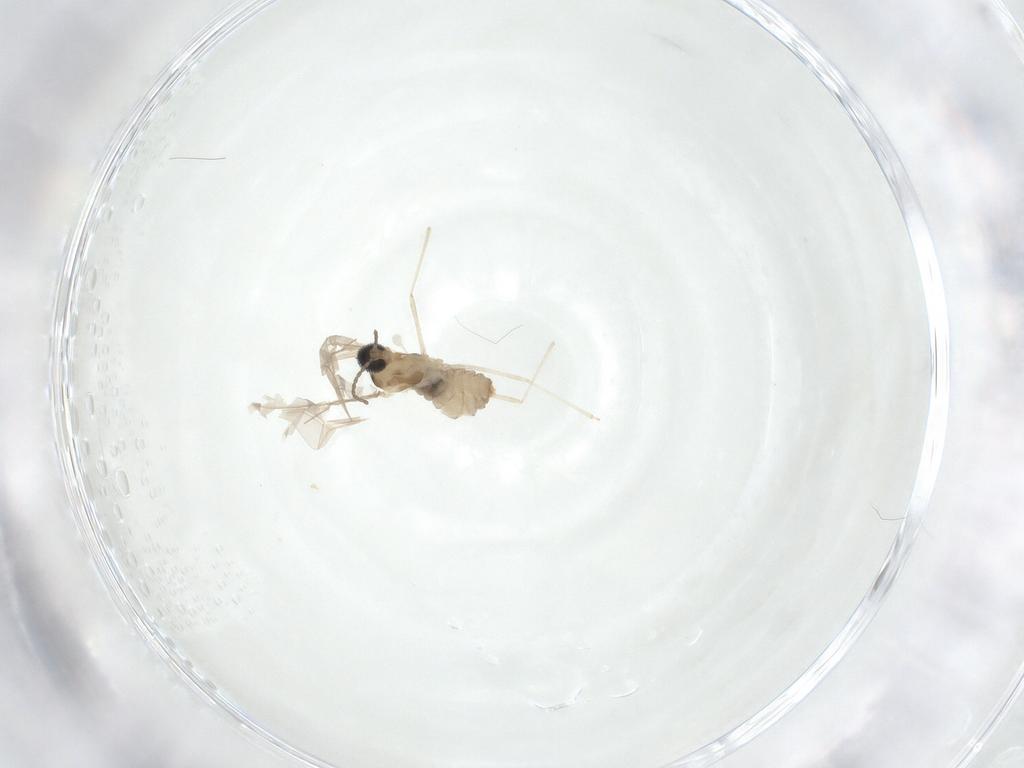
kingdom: Animalia
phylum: Arthropoda
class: Insecta
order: Diptera
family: Cecidomyiidae
